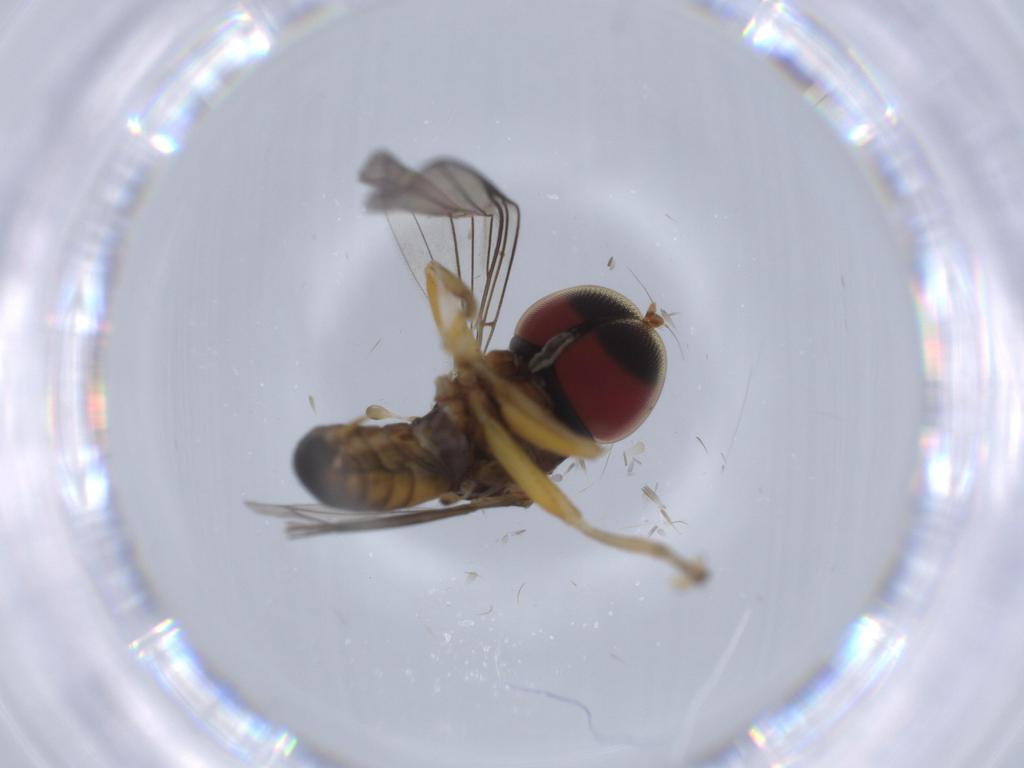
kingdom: Animalia
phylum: Arthropoda
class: Insecta
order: Diptera
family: Pipunculidae
